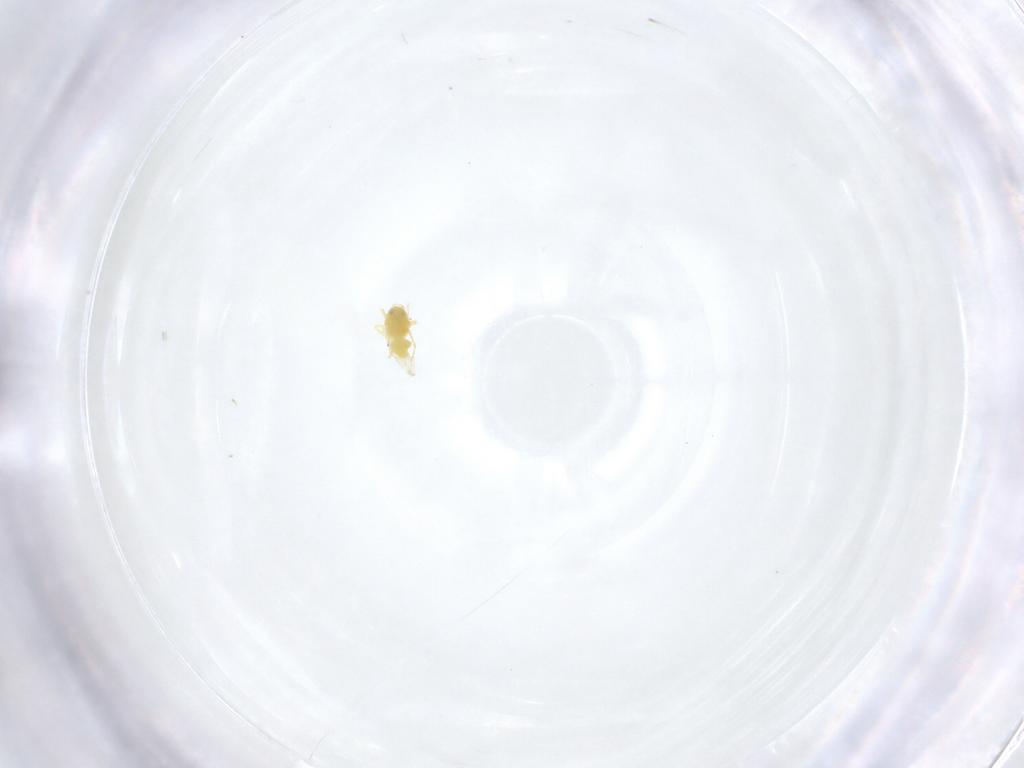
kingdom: Animalia
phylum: Arthropoda
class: Insecta
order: Hemiptera
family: Aleyrodidae
